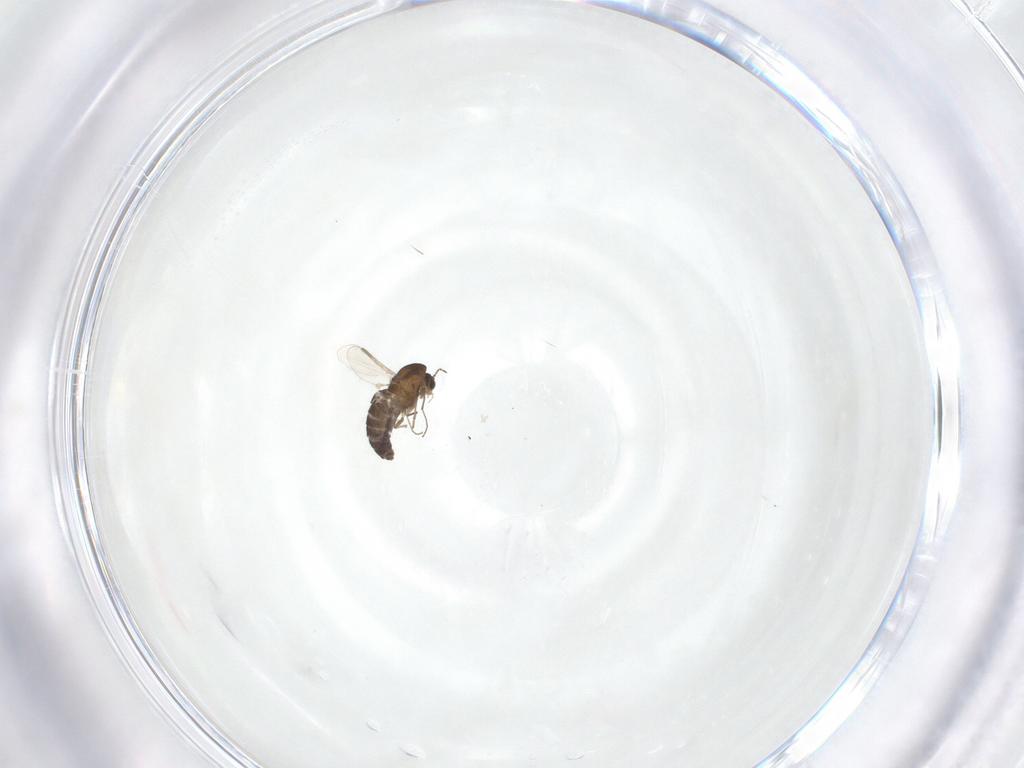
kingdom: Animalia
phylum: Arthropoda
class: Insecta
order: Diptera
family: Chironomidae
